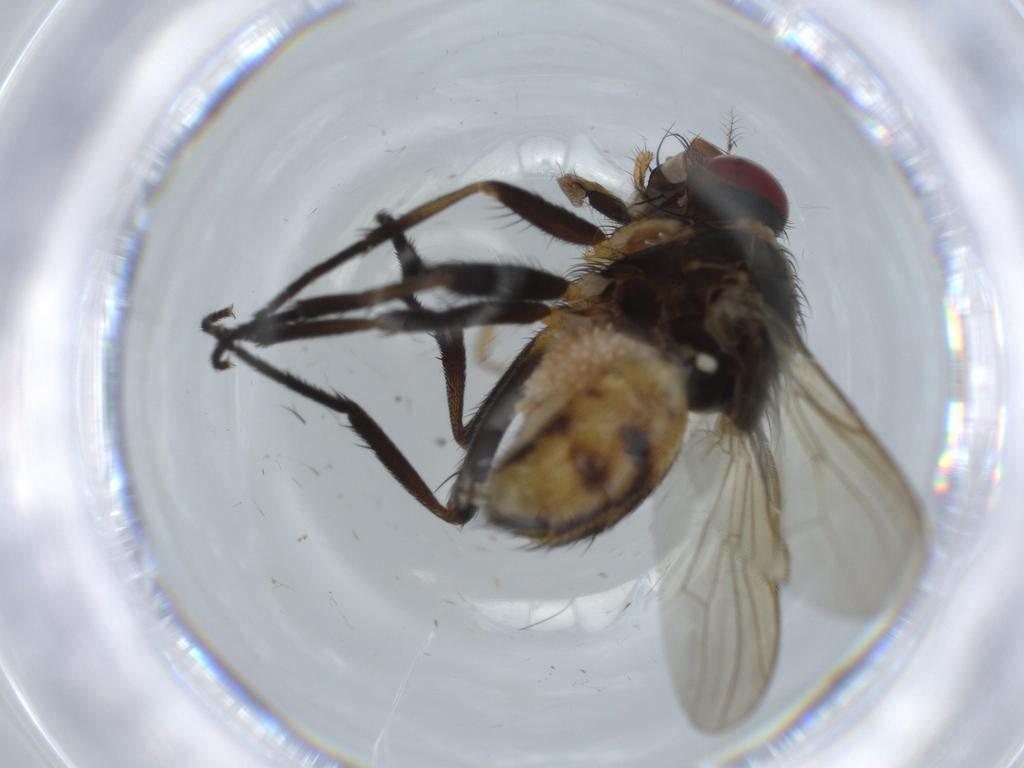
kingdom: Animalia
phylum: Arthropoda
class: Insecta
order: Diptera
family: Anthomyiidae
